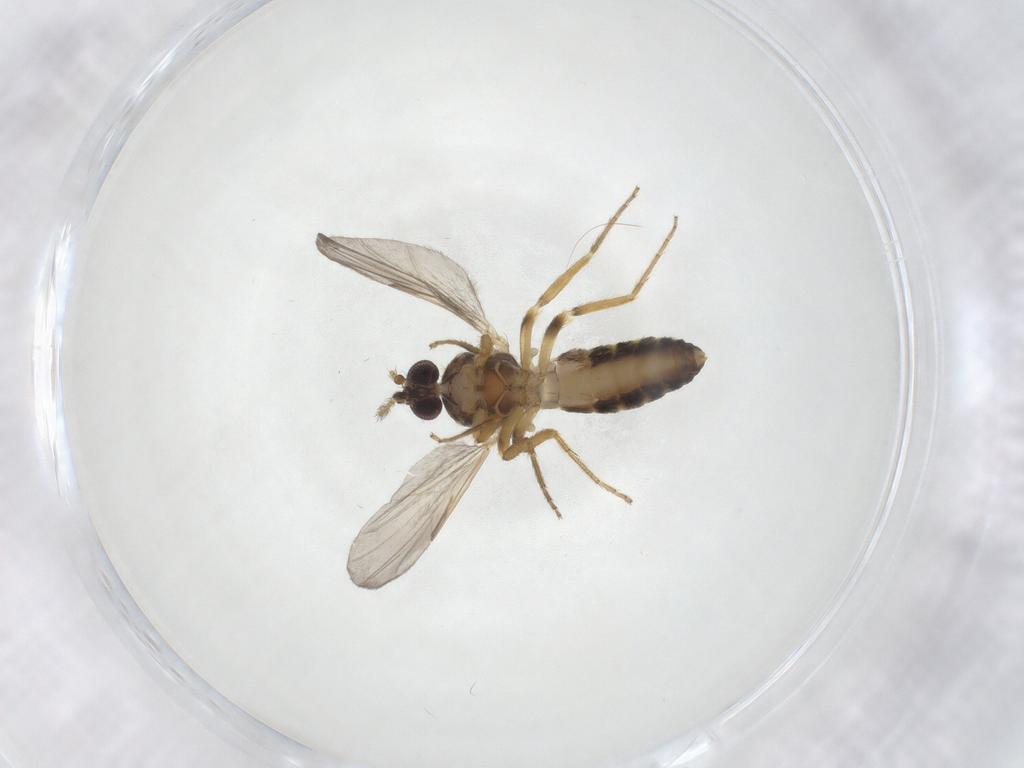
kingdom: Animalia
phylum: Arthropoda
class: Insecta
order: Diptera
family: Ceratopogonidae
